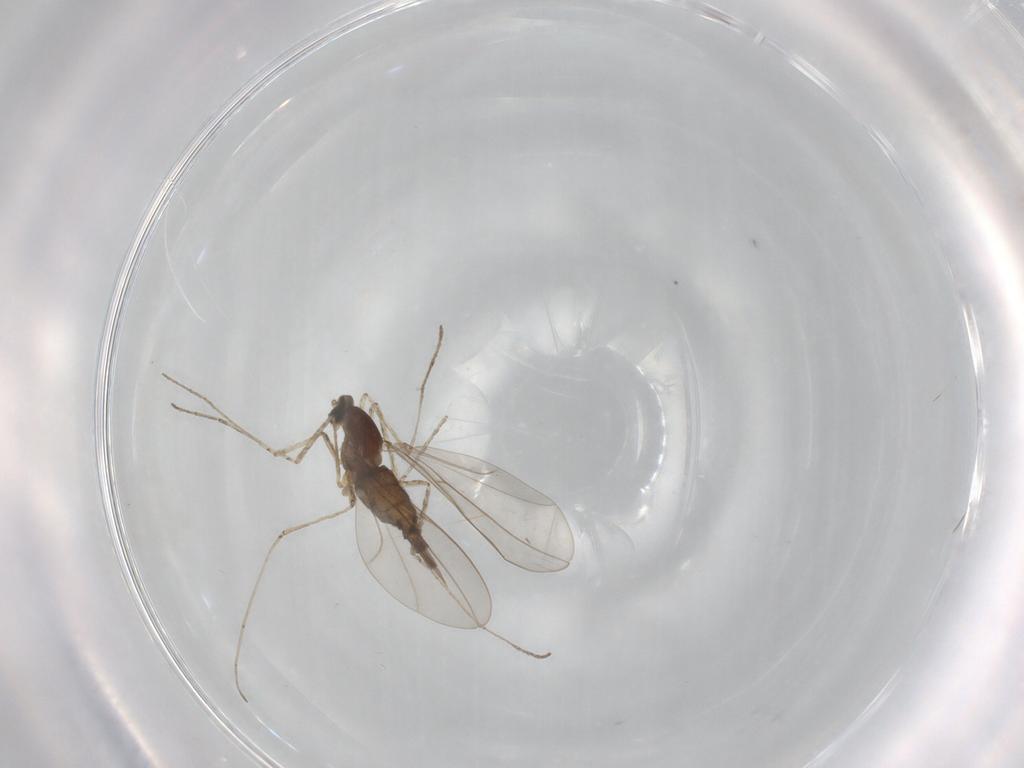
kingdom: Animalia
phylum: Arthropoda
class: Insecta
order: Diptera
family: Cecidomyiidae
